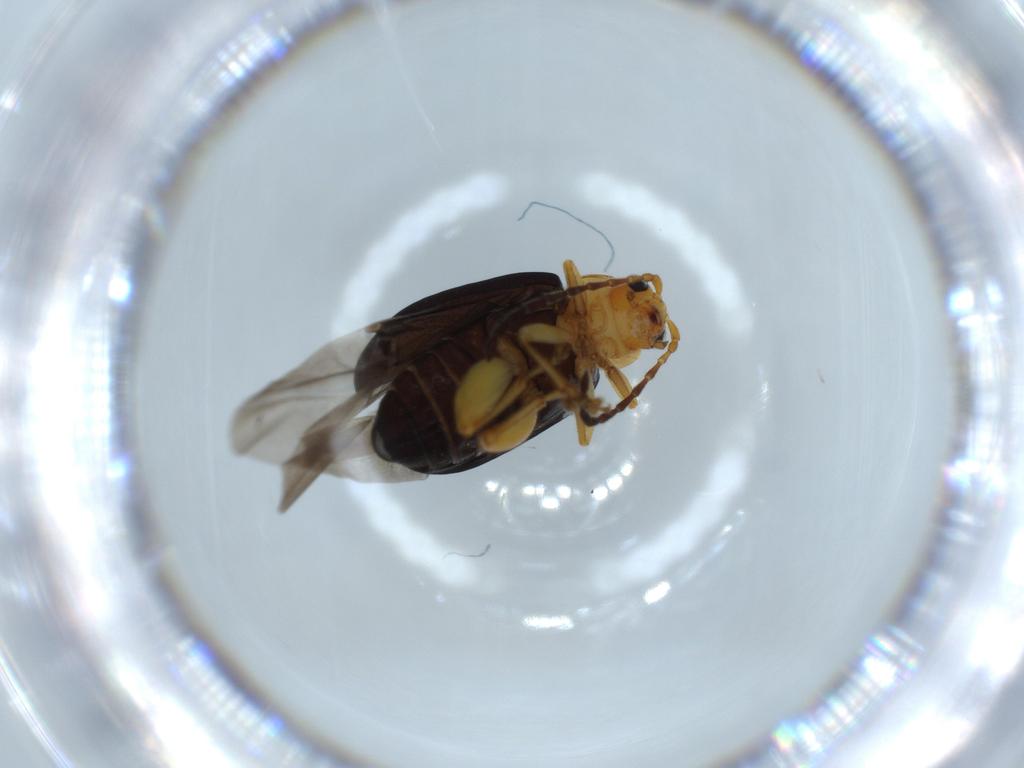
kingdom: Animalia
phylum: Arthropoda
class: Insecta
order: Coleoptera
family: Chrysomelidae
